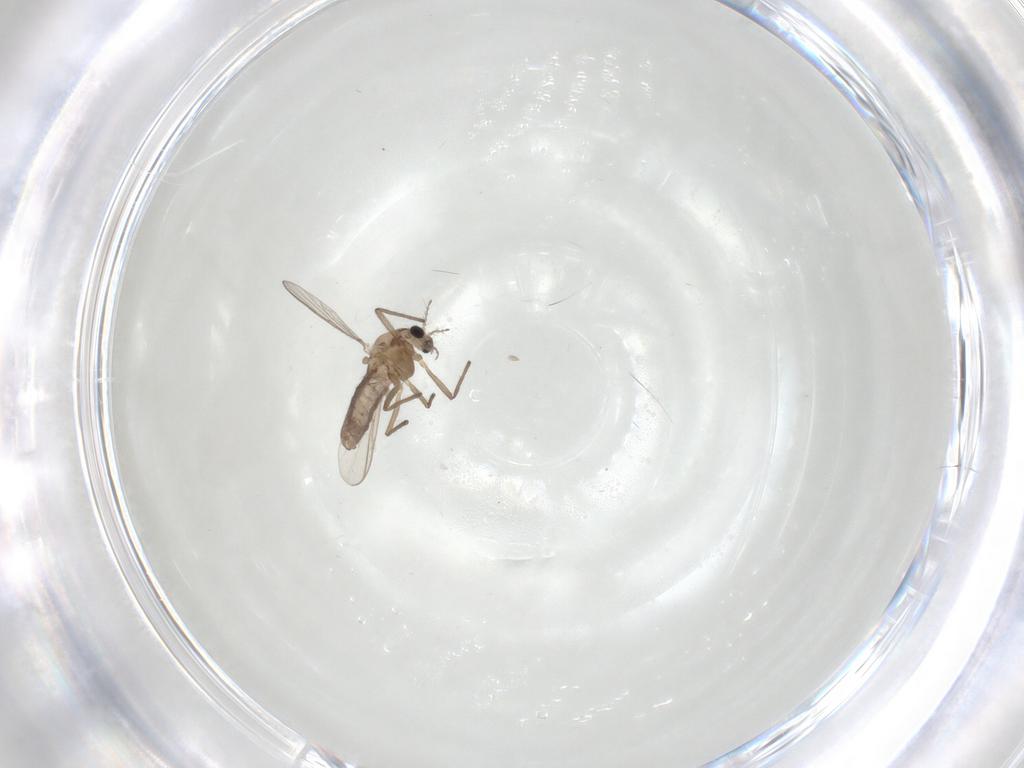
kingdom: Animalia
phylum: Arthropoda
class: Insecta
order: Diptera
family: Chironomidae
